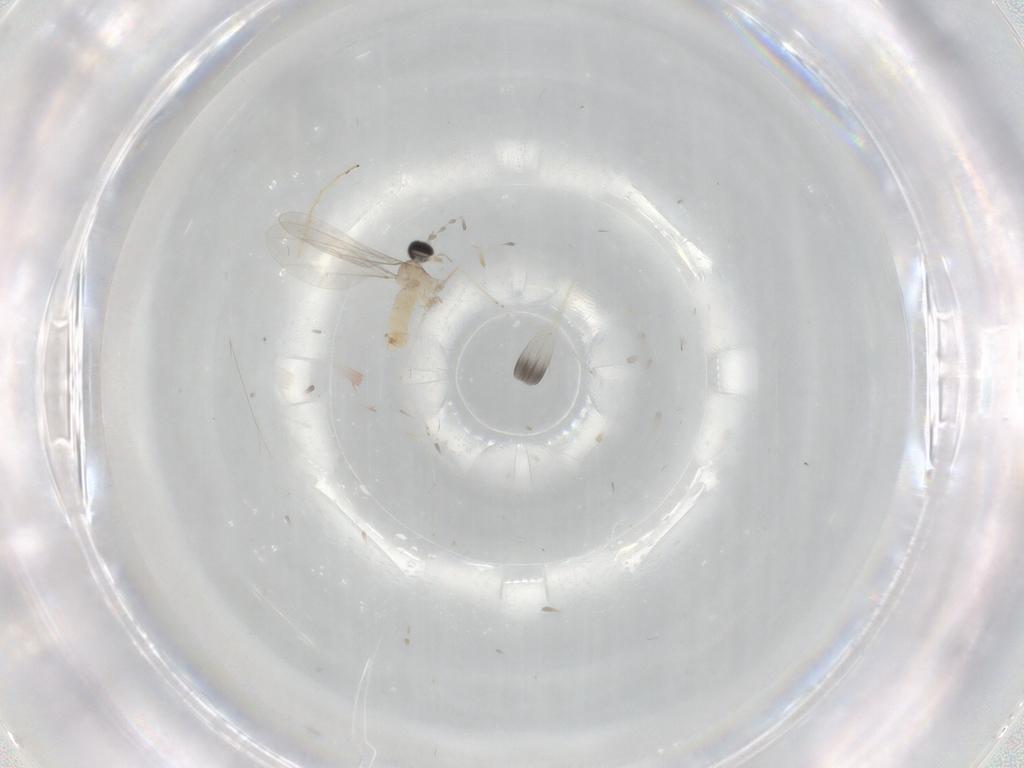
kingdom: Animalia
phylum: Arthropoda
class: Insecta
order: Diptera
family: Cecidomyiidae
